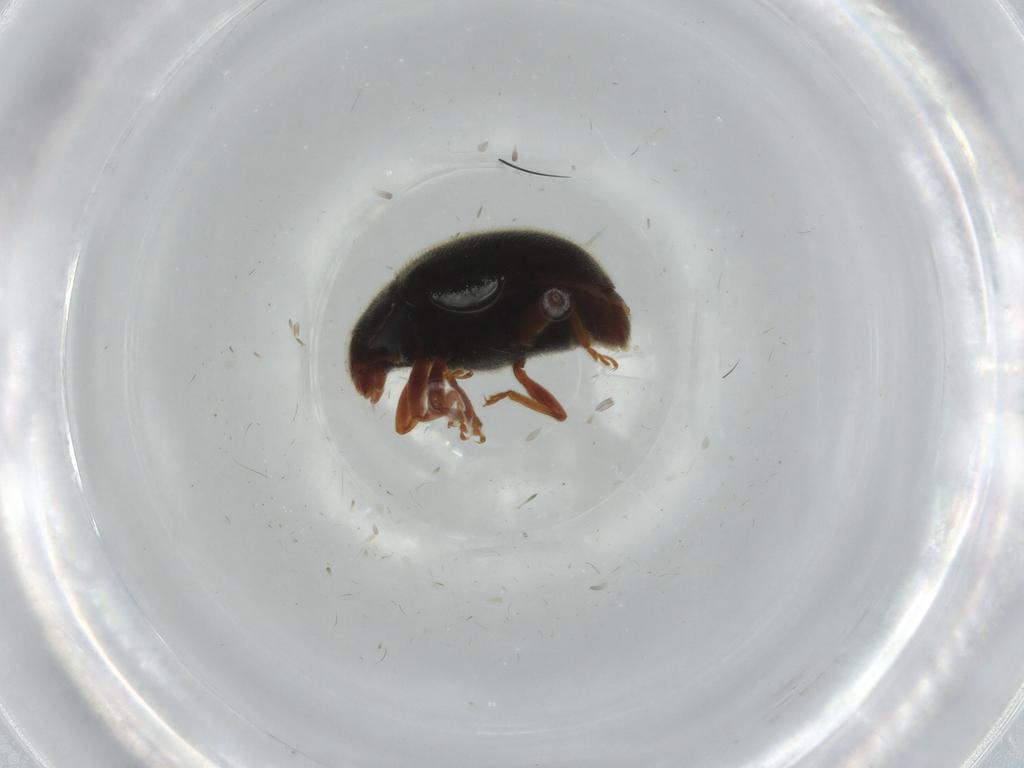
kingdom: Animalia
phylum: Arthropoda
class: Insecta
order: Coleoptera
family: Coccinellidae
